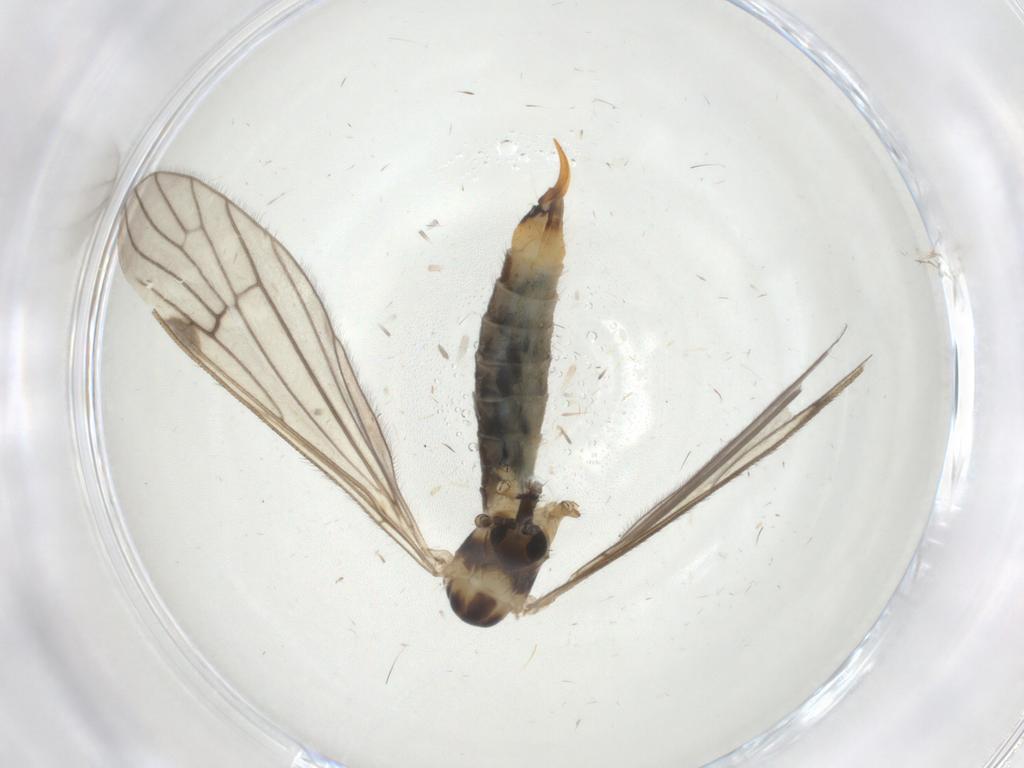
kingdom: Animalia
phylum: Arthropoda
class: Insecta
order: Diptera
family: Limoniidae
